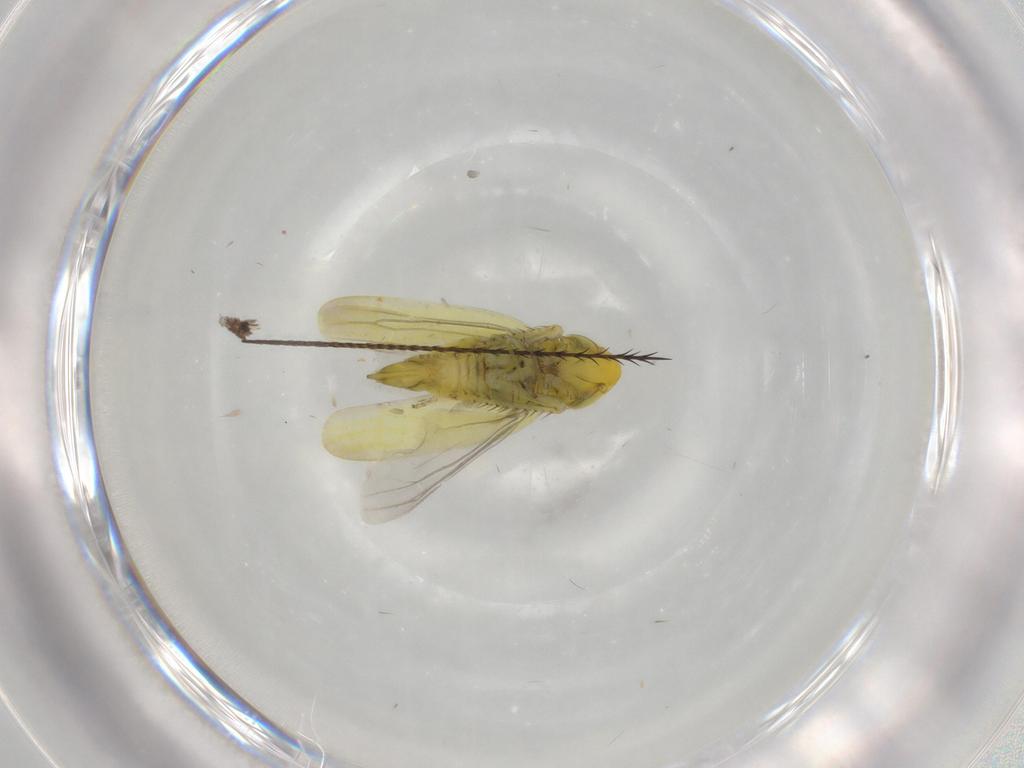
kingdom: Animalia
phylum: Arthropoda
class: Insecta
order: Hemiptera
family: Cicadellidae
